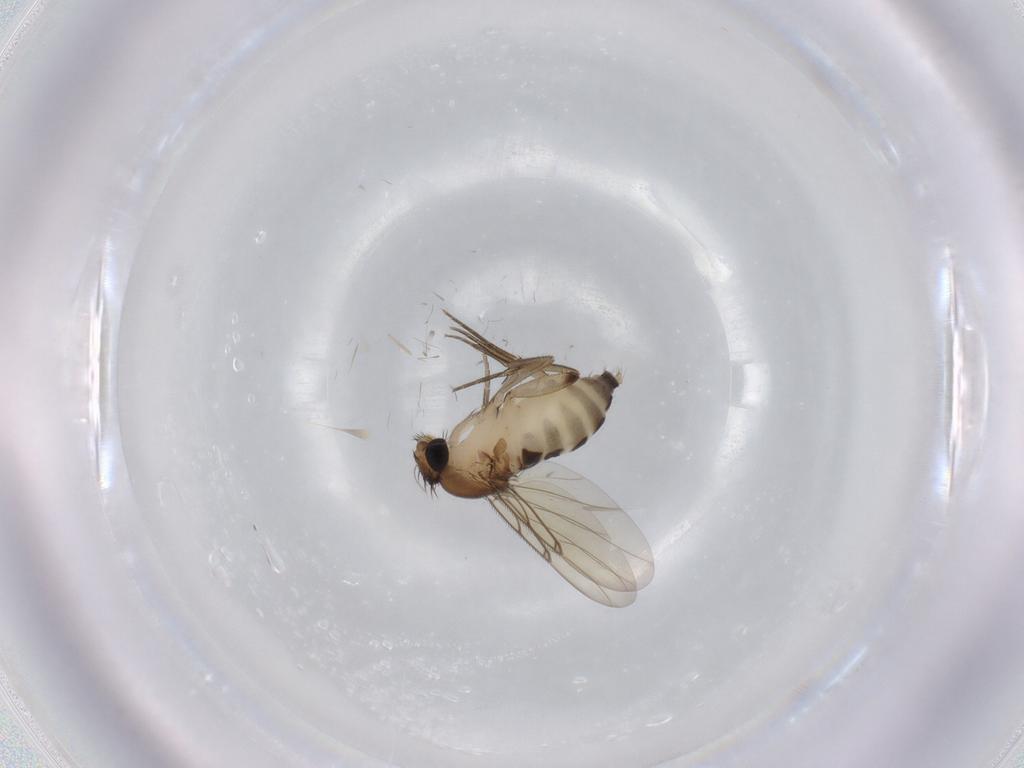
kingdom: Animalia
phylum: Arthropoda
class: Insecta
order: Diptera
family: Phoridae
